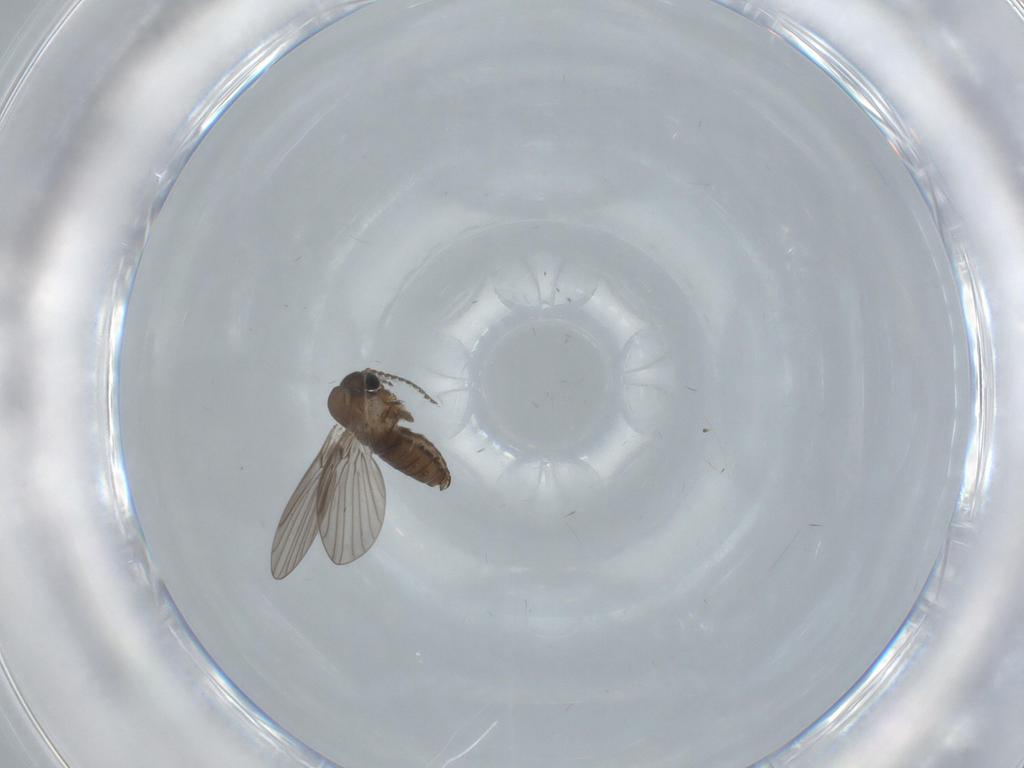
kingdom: Animalia
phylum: Arthropoda
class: Insecta
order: Diptera
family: Psychodidae
